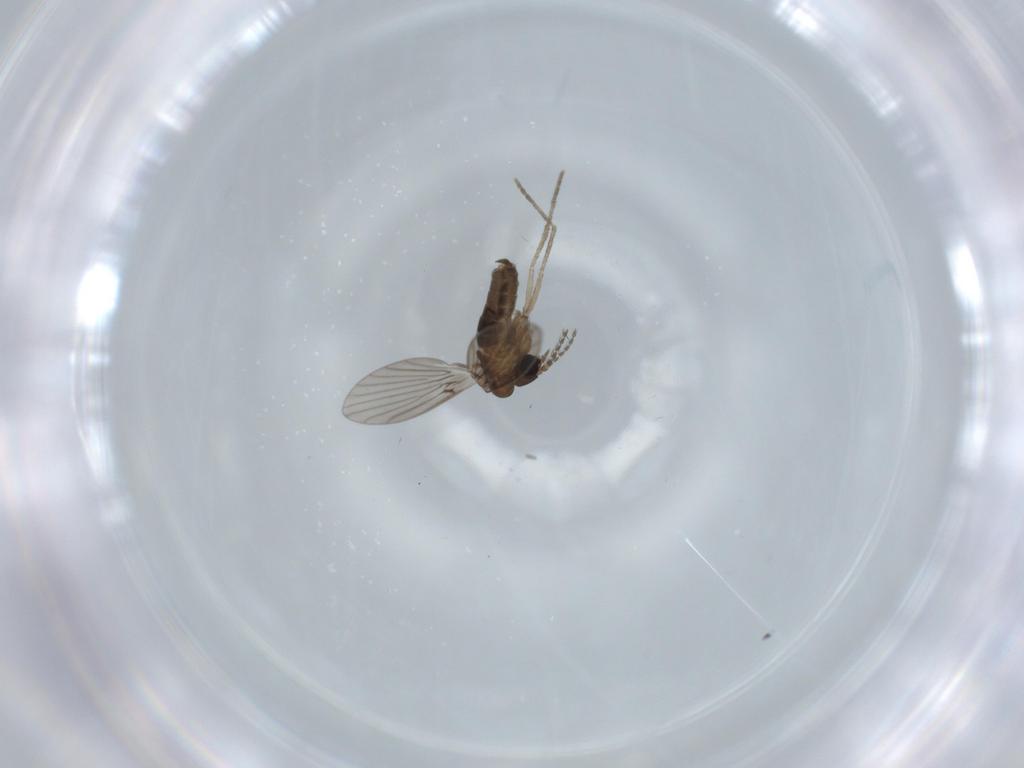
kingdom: Animalia
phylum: Arthropoda
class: Insecta
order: Diptera
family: Psychodidae
